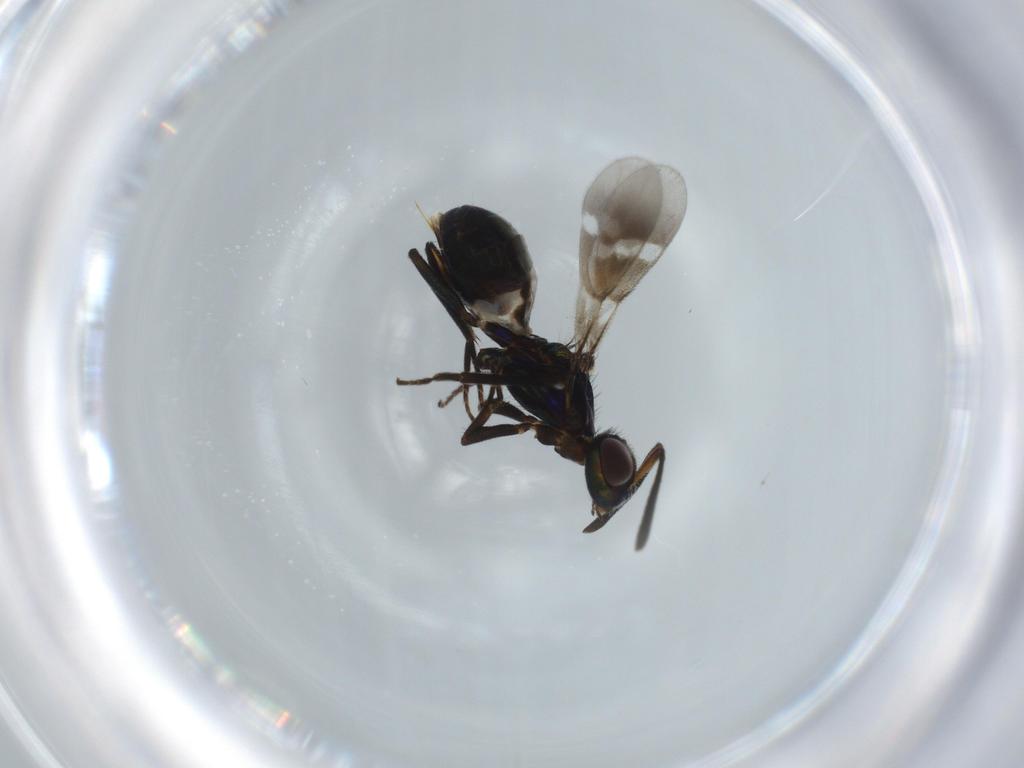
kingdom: Animalia
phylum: Arthropoda
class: Insecta
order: Hymenoptera
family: Eupelmidae
